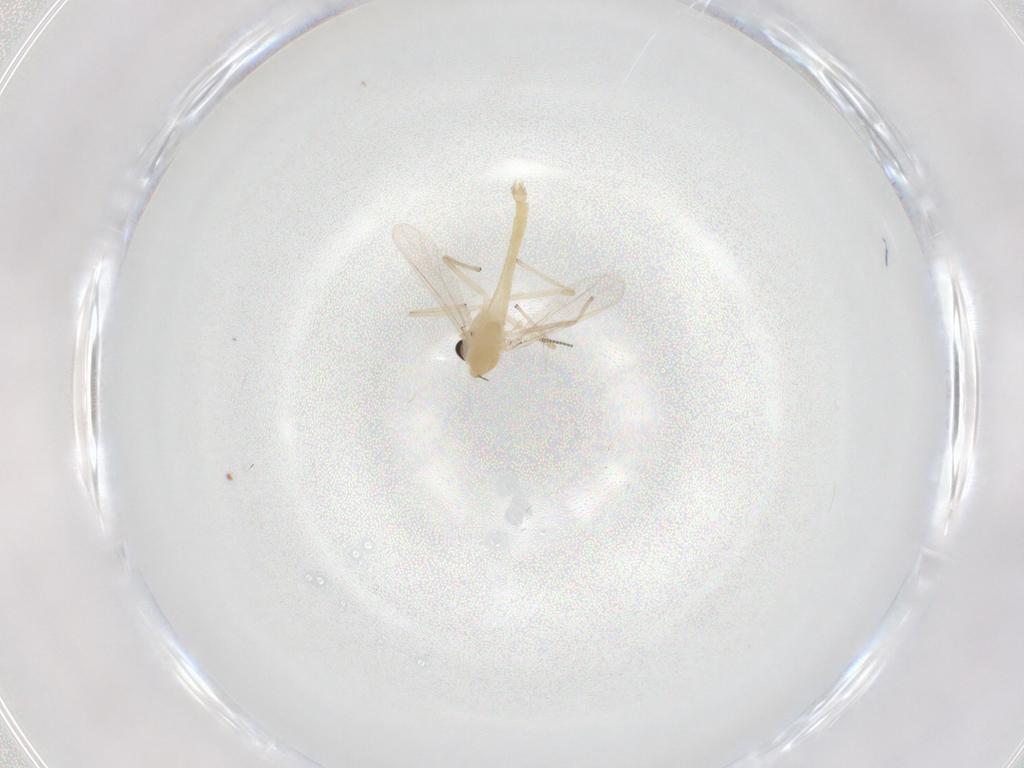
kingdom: Animalia
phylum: Arthropoda
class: Insecta
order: Diptera
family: Chironomidae
